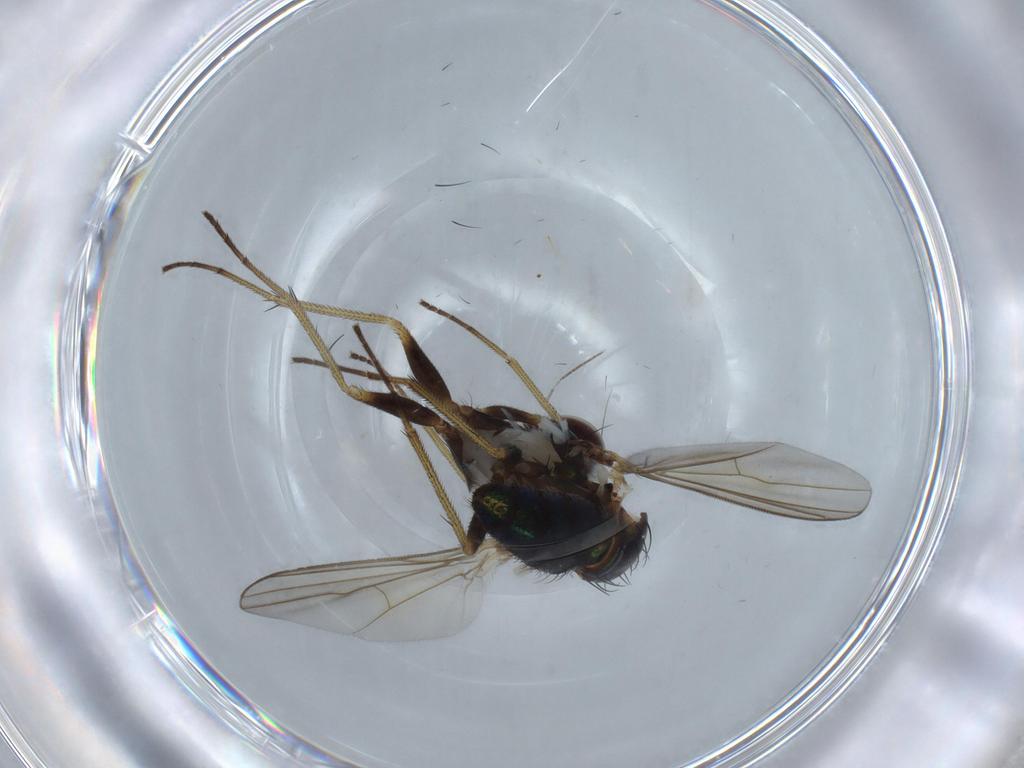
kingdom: Animalia
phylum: Arthropoda
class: Insecta
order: Diptera
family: Dolichopodidae
